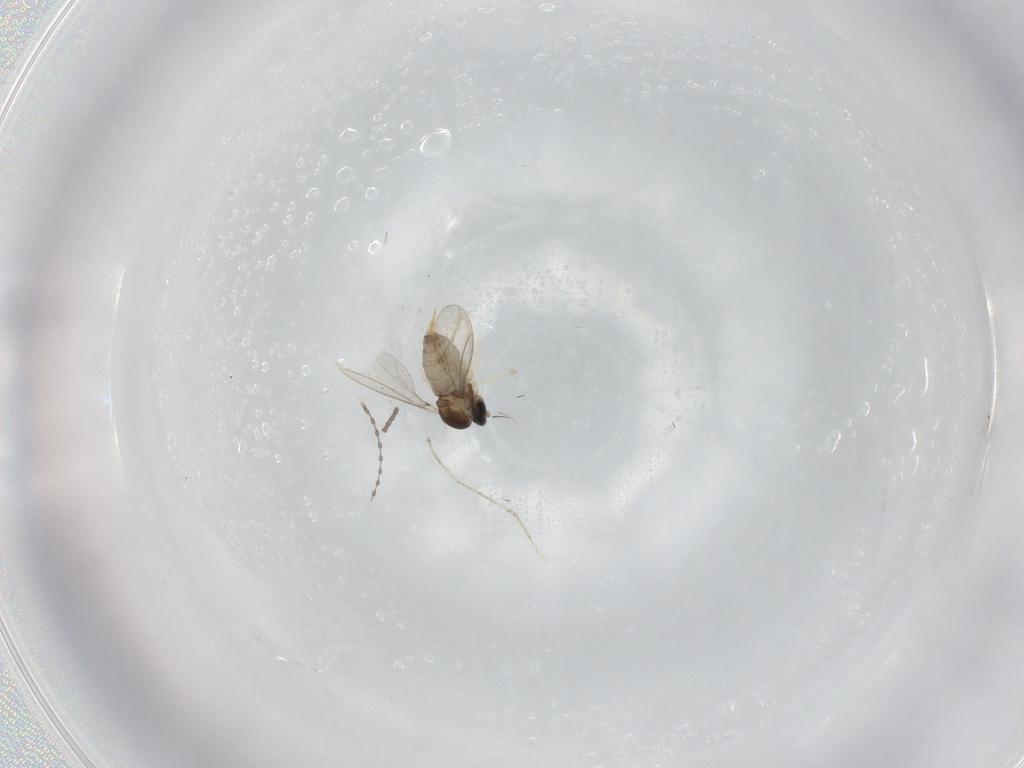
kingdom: Animalia
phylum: Arthropoda
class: Insecta
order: Diptera
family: Cecidomyiidae
